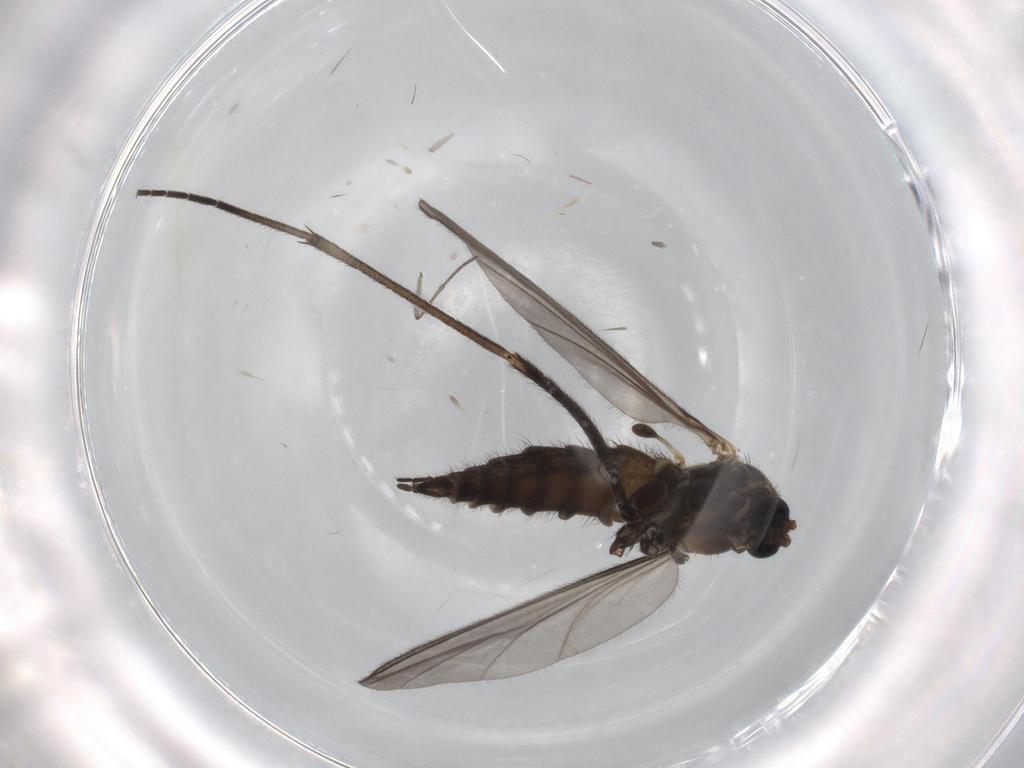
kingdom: Animalia
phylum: Arthropoda
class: Insecta
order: Diptera
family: Sciaridae
